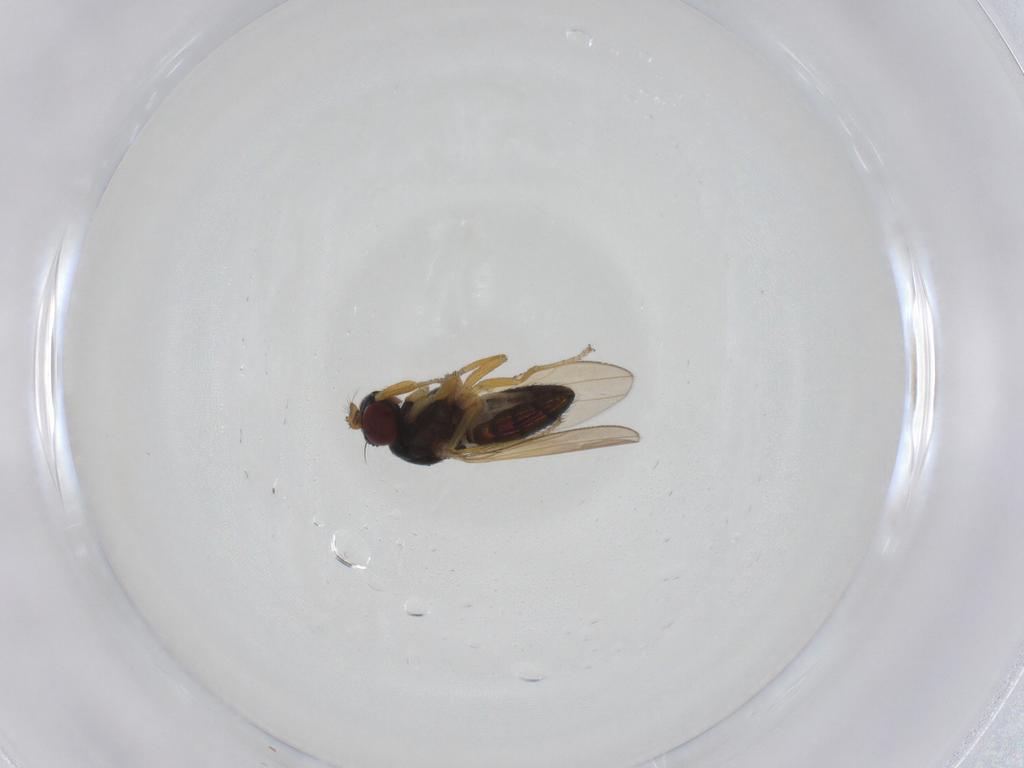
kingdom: Animalia
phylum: Arthropoda
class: Insecta
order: Diptera
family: Ephydridae
